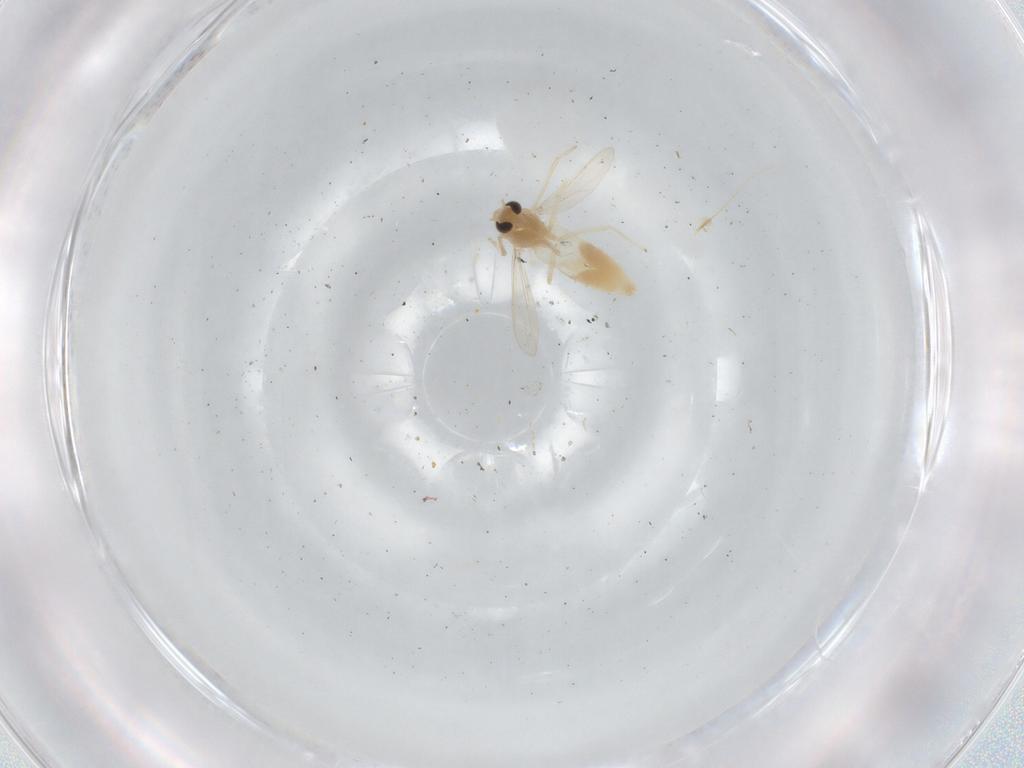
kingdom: Animalia
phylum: Arthropoda
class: Insecta
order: Diptera
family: Ceratopogonidae
